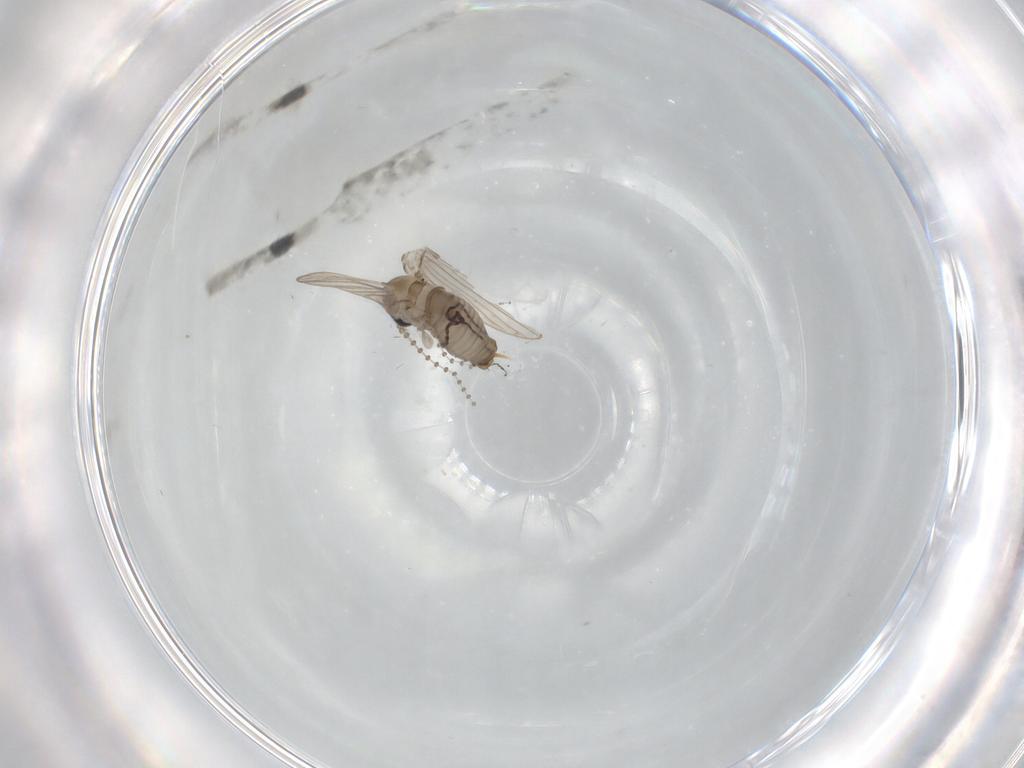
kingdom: Animalia
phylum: Arthropoda
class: Insecta
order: Diptera
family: Psychodidae
